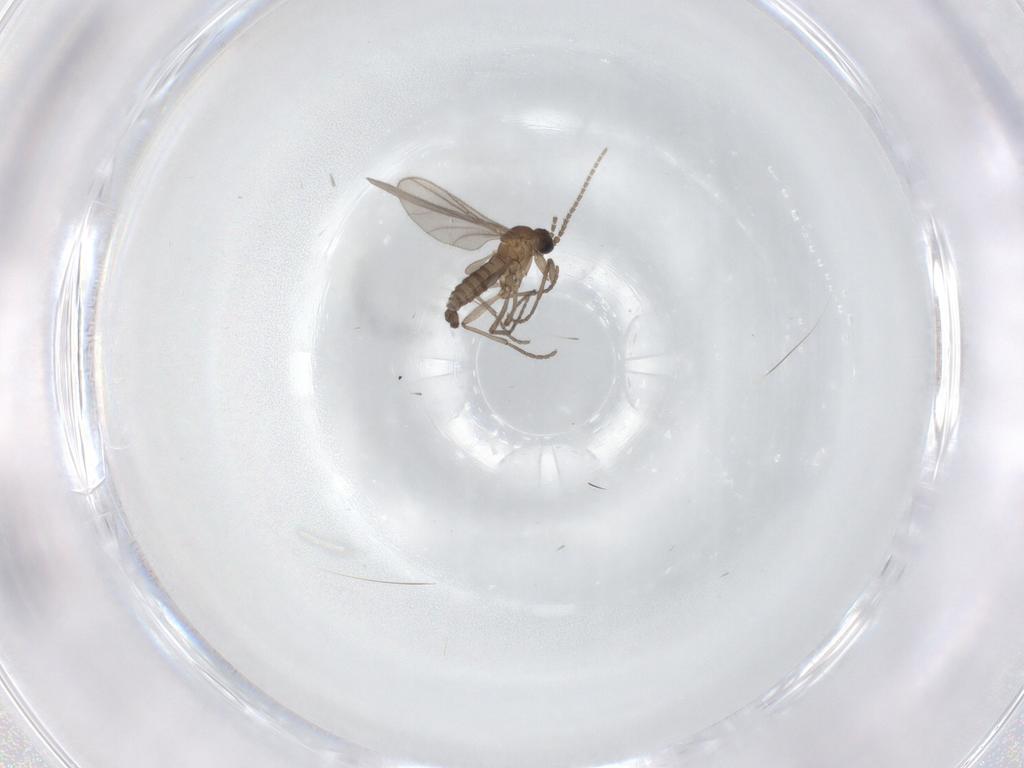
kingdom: Animalia
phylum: Arthropoda
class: Insecta
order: Diptera
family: Sciaridae
